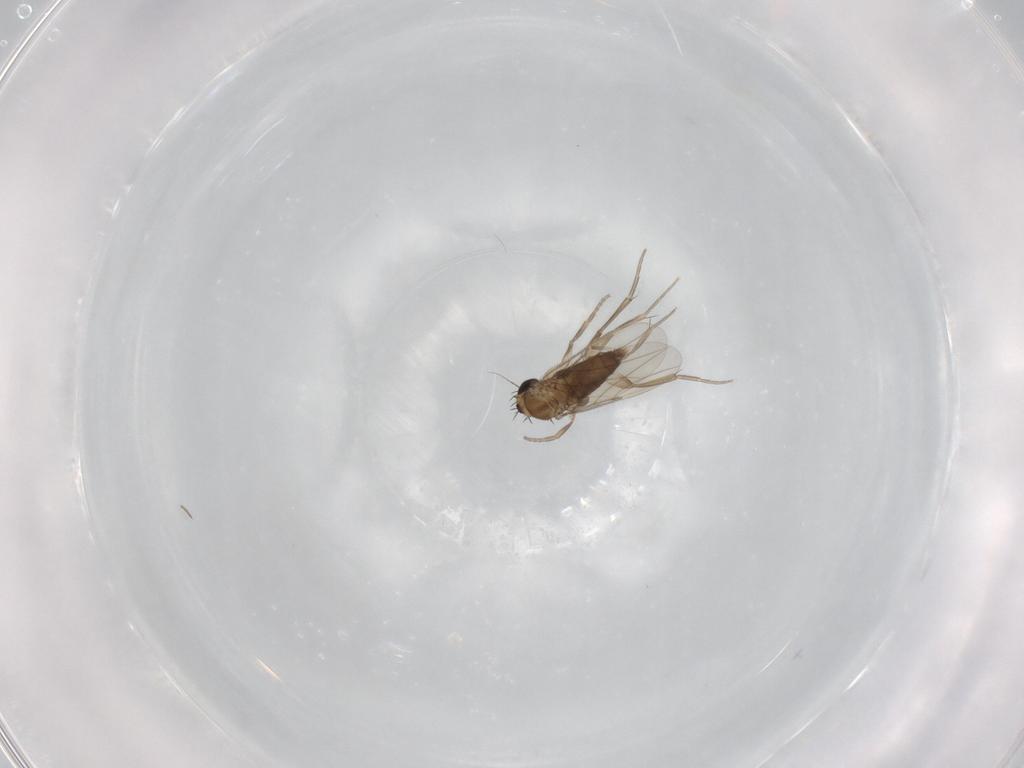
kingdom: Animalia
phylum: Arthropoda
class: Insecta
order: Diptera
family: Phoridae
